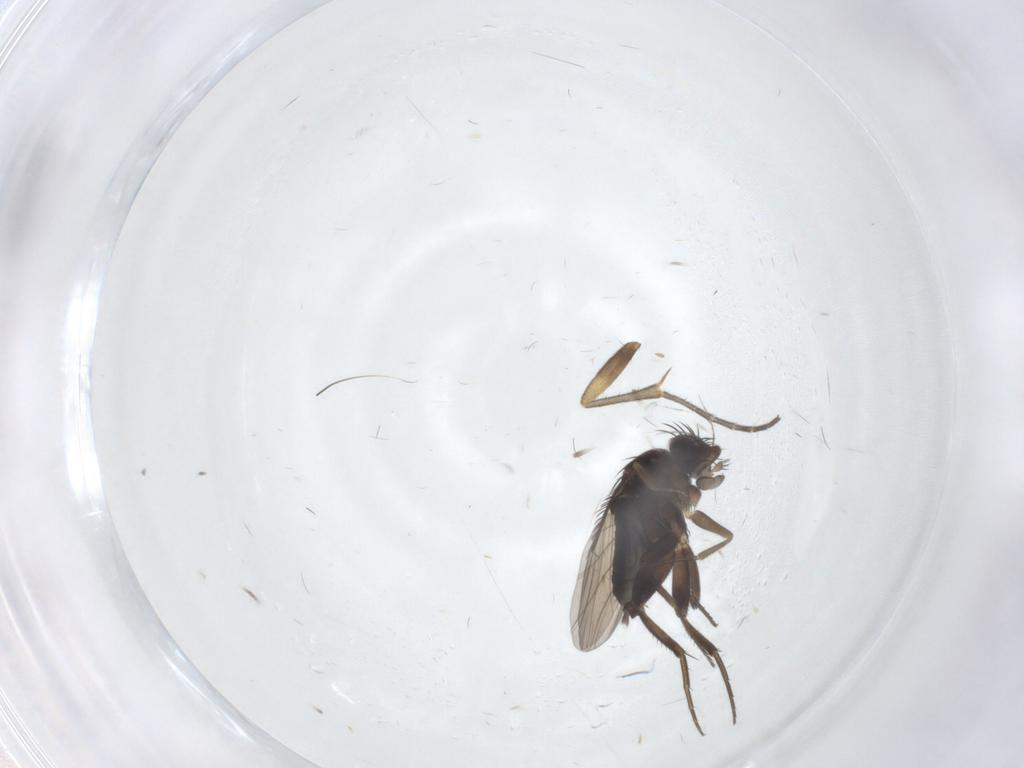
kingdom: Animalia
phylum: Arthropoda
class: Insecta
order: Diptera
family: Phoridae
